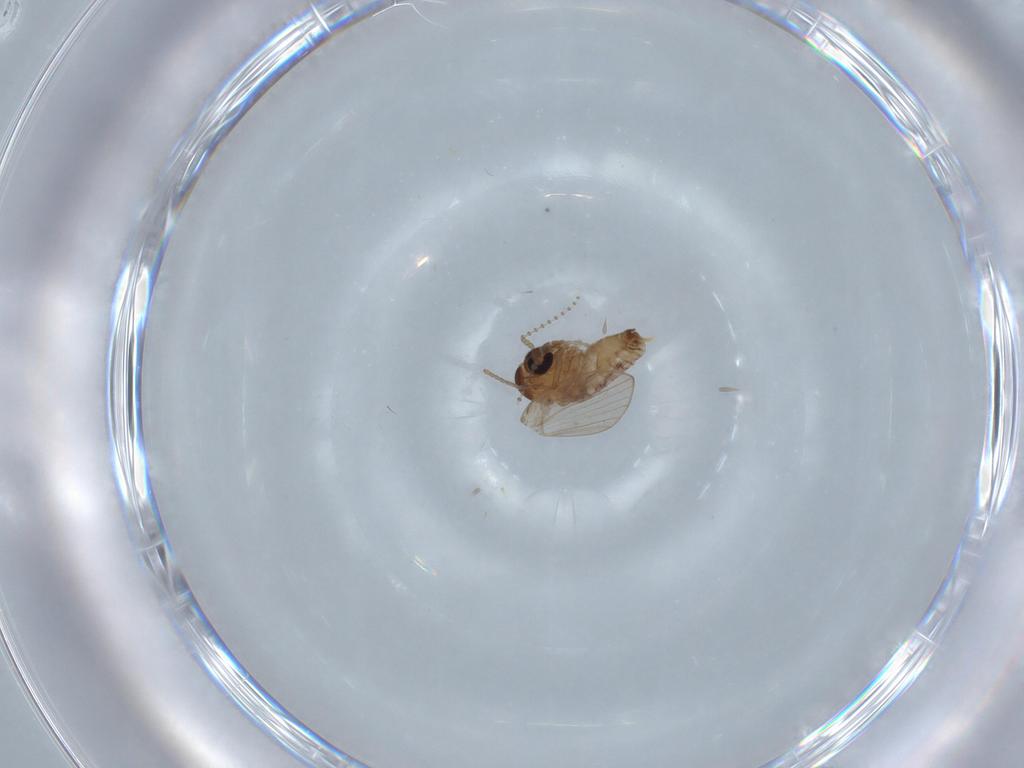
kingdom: Animalia
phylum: Arthropoda
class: Insecta
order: Diptera
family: Psychodidae
